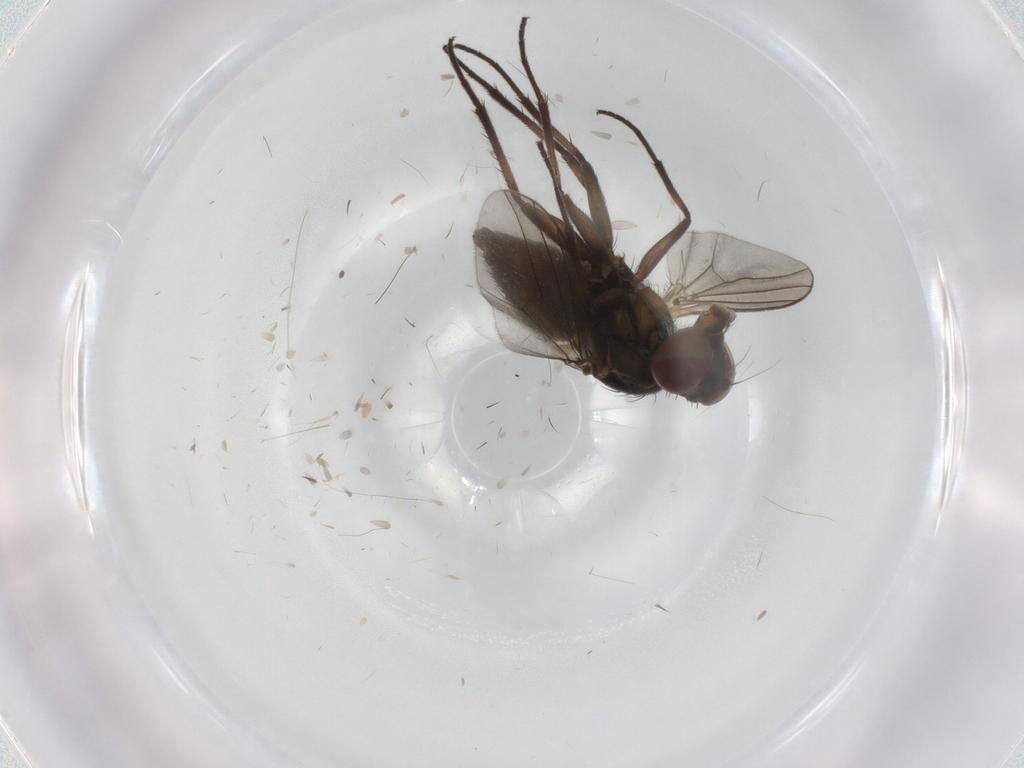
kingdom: Animalia
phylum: Arthropoda
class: Insecta
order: Diptera
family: Dolichopodidae
